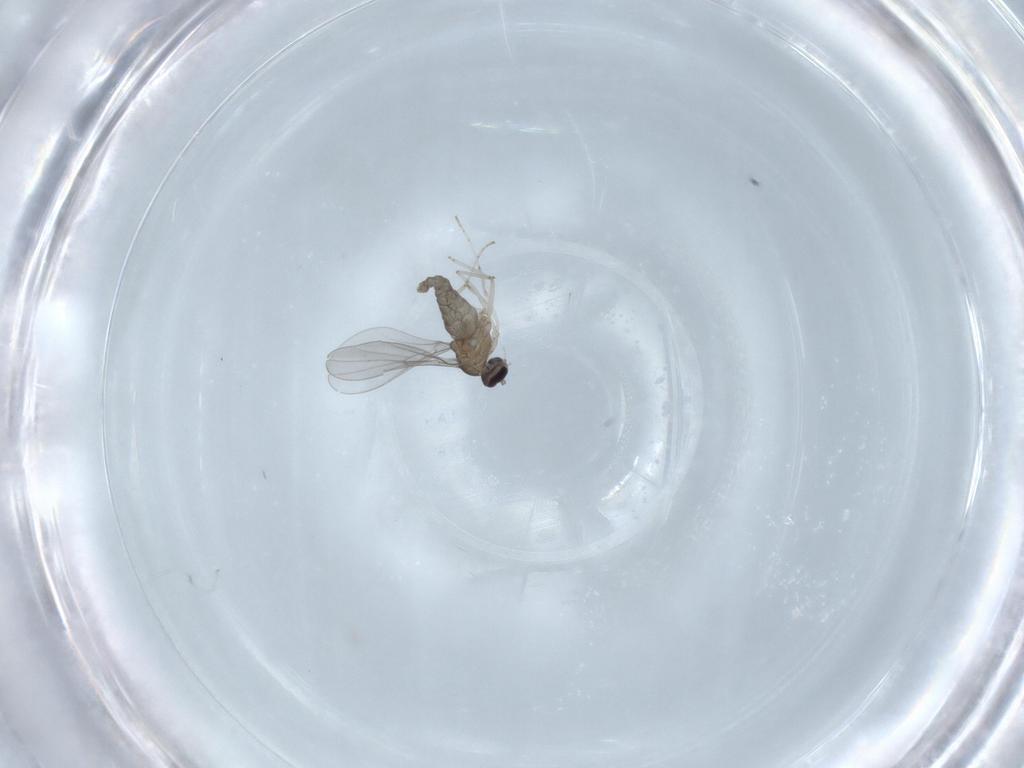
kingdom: Animalia
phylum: Arthropoda
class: Insecta
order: Diptera
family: Cecidomyiidae
